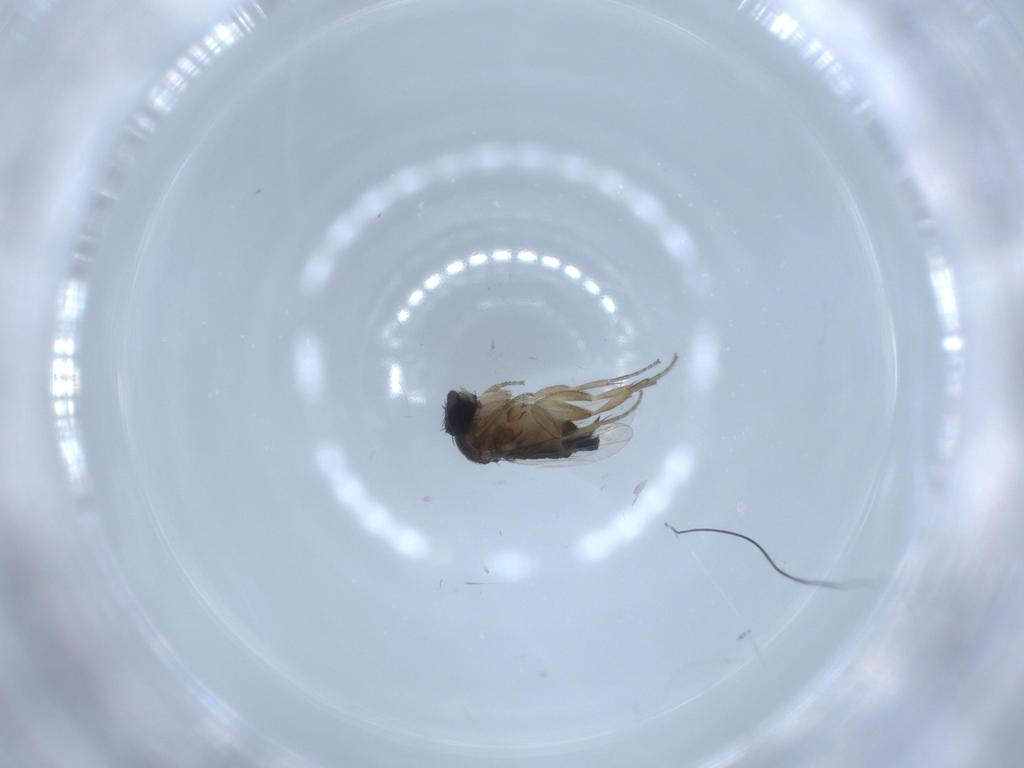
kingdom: Animalia
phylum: Arthropoda
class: Insecta
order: Diptera
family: Phoridae
